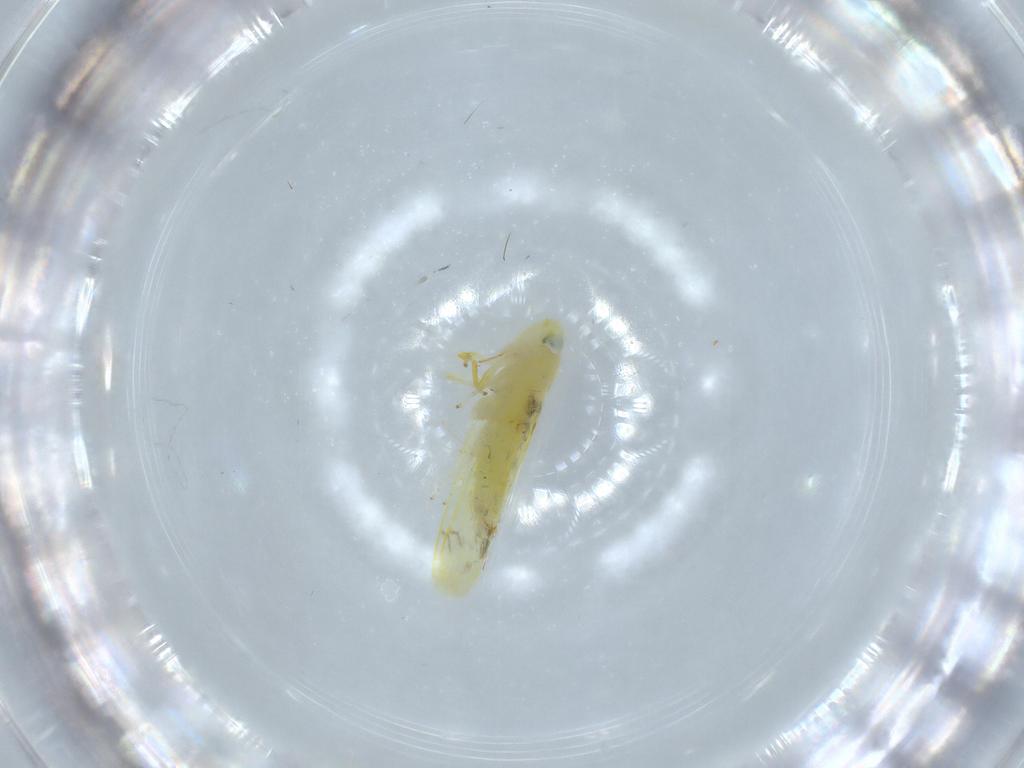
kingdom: Animalia
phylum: Arthropoda
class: Insecta
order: Hemiptera
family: Cicadellidae
